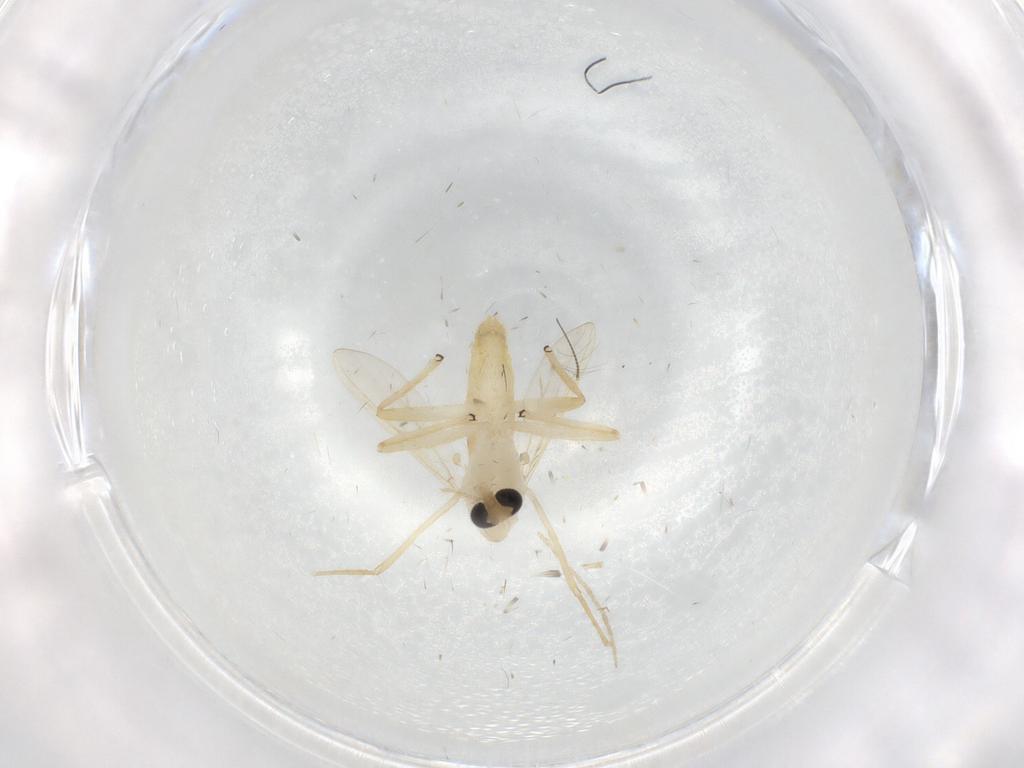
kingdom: Animalia
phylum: Arthropoda
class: Insecta
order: Diptera
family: Chironomidae
